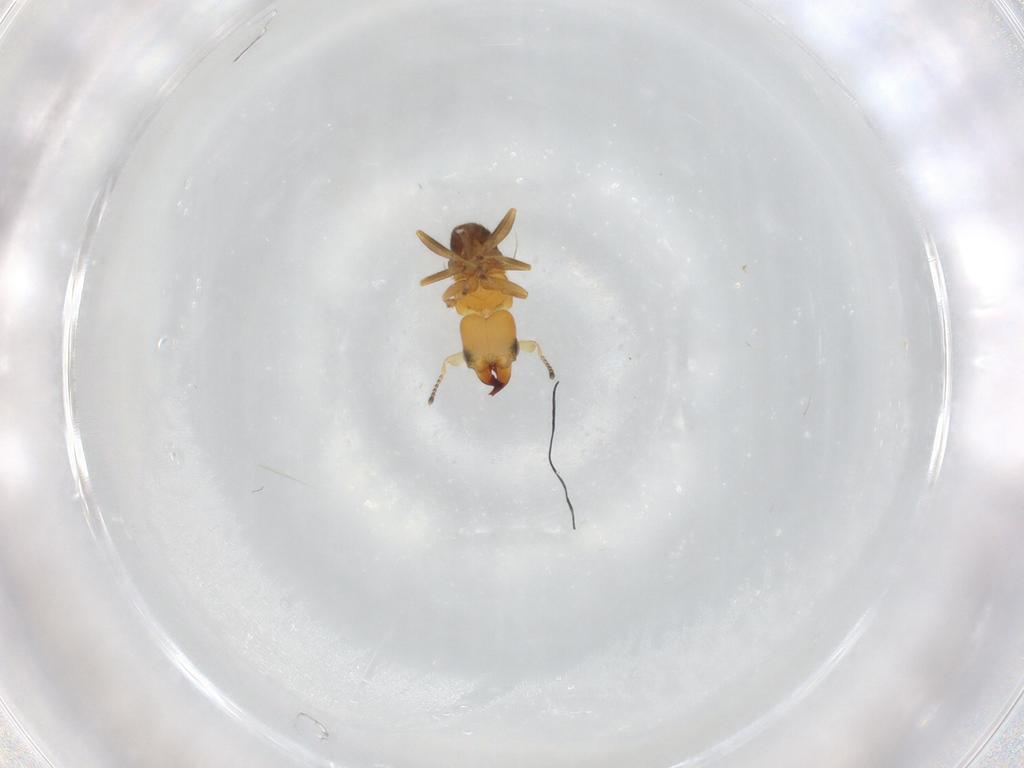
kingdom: Animalia
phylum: Arthropoda
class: Insecta
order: Hymenoptera
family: Pteromalidae
